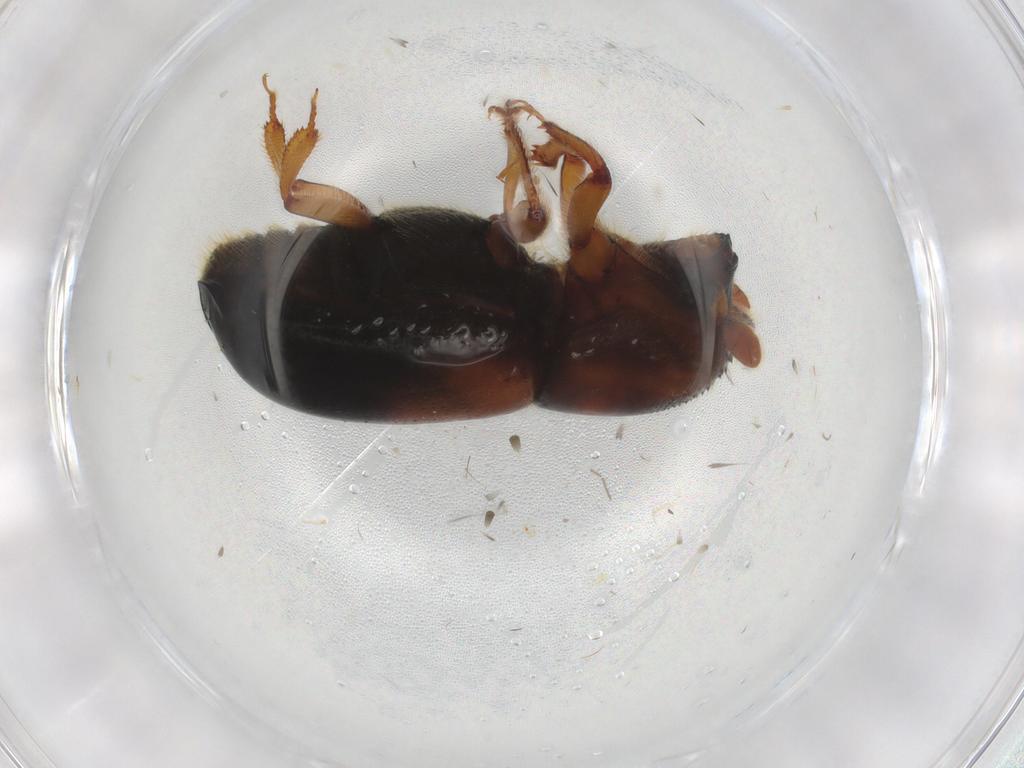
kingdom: Animalia
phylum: Arthropoda
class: Insecta
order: Coleoptera
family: Curculionidae
